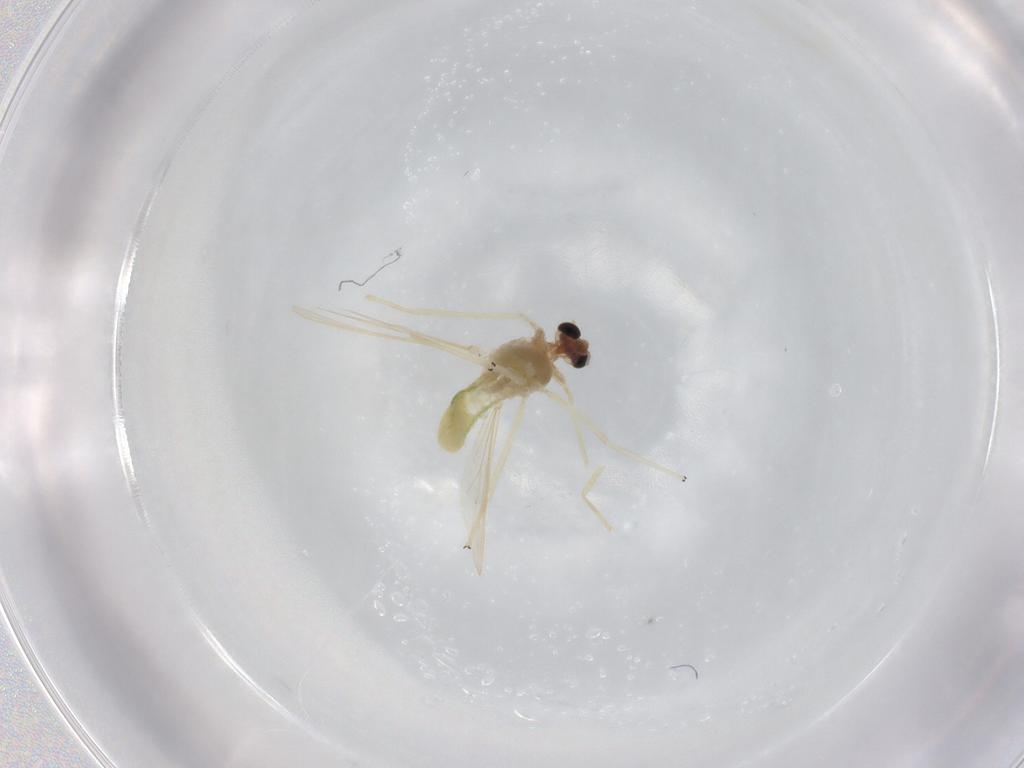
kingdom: Animalia
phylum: Arthropoda
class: Insecta
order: Diptera
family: Chironomidae
